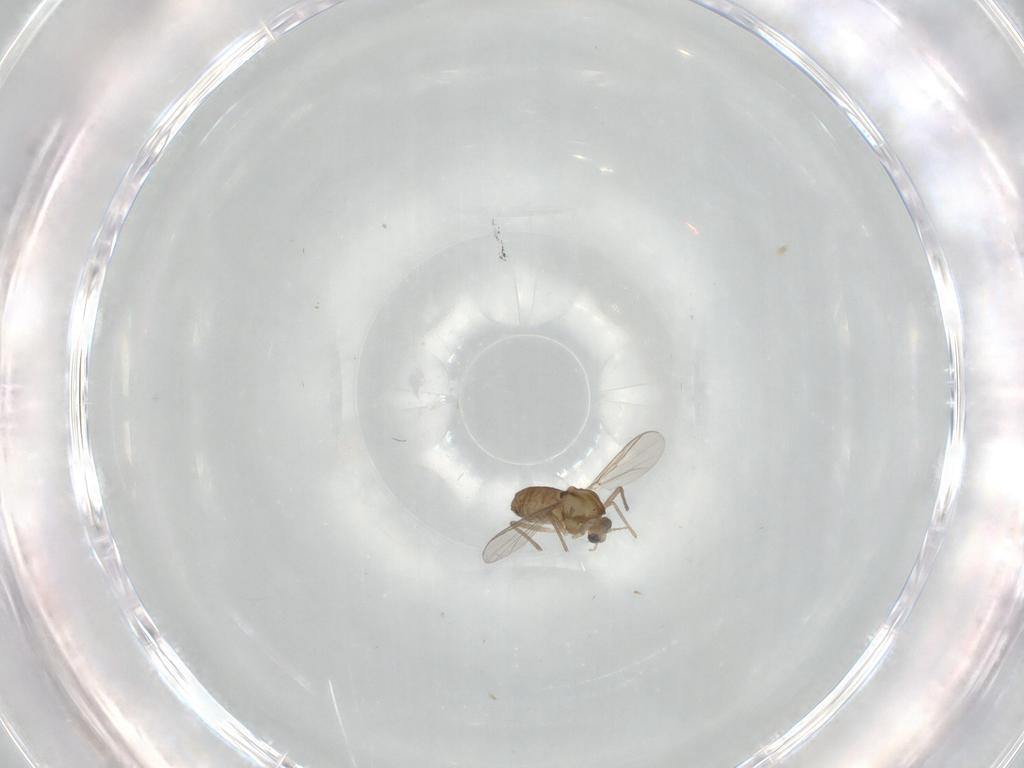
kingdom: Animalia
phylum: Arthropoda
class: Insecta
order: Diptera
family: Chironomidae
